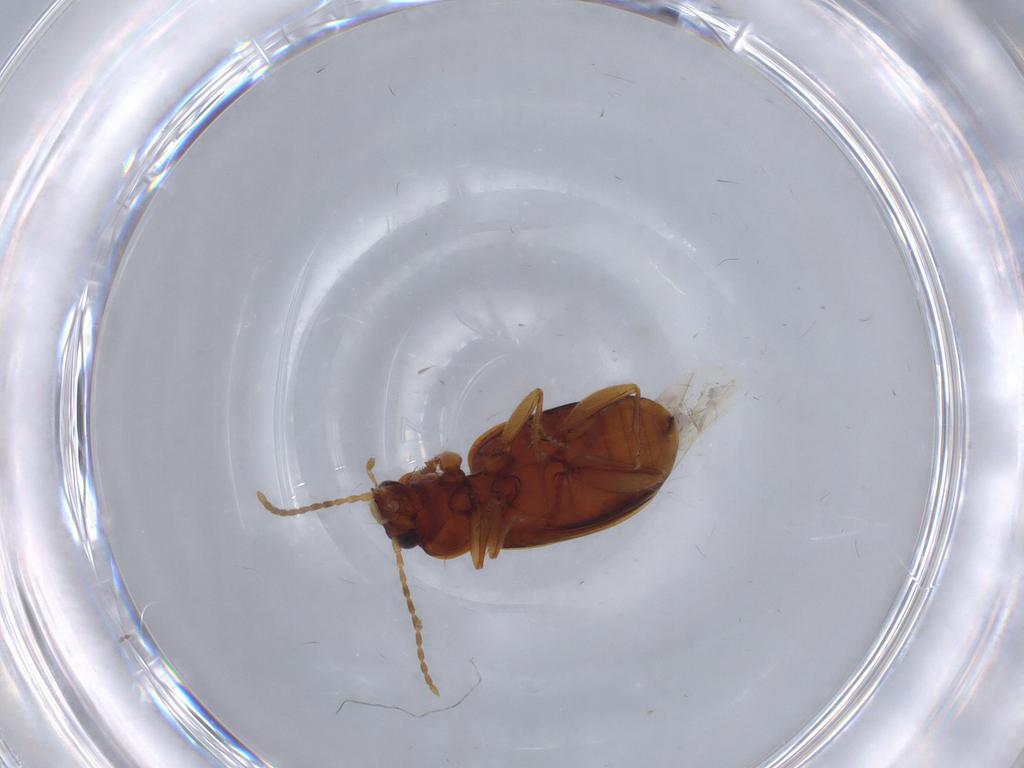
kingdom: Animalia
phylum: Arthropoda
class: Insecta
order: Coleoptera
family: Carabidae
